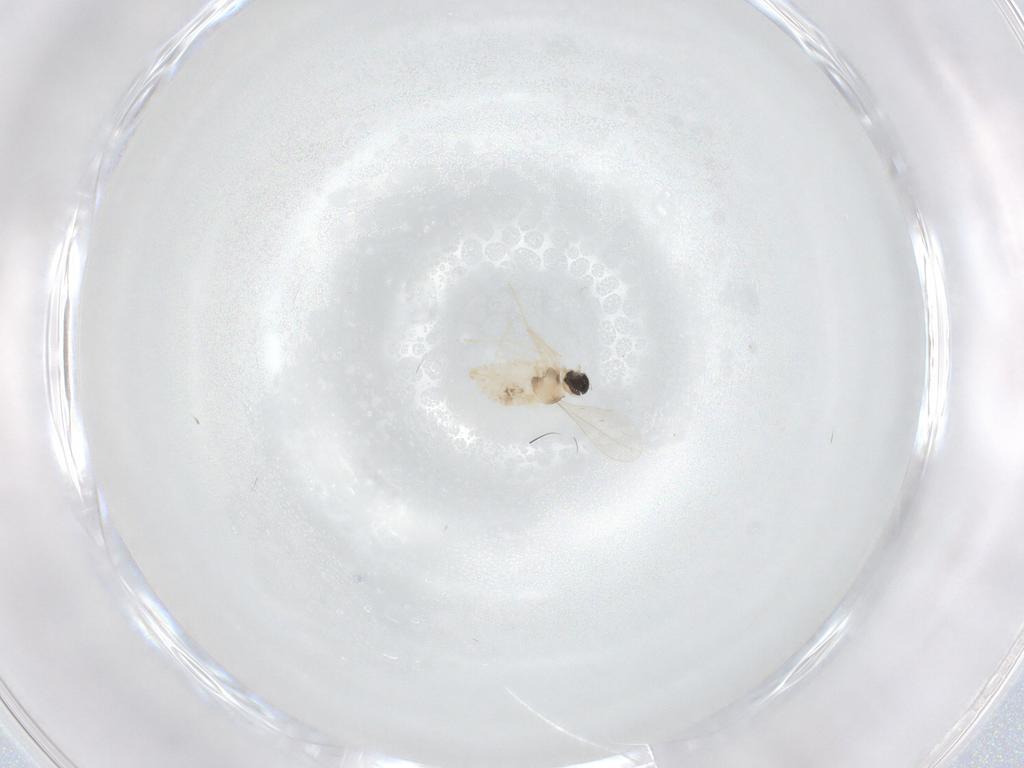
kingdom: Animalia
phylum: Arthropoda
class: Insecta
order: Diptera
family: Cecidomyiidae
